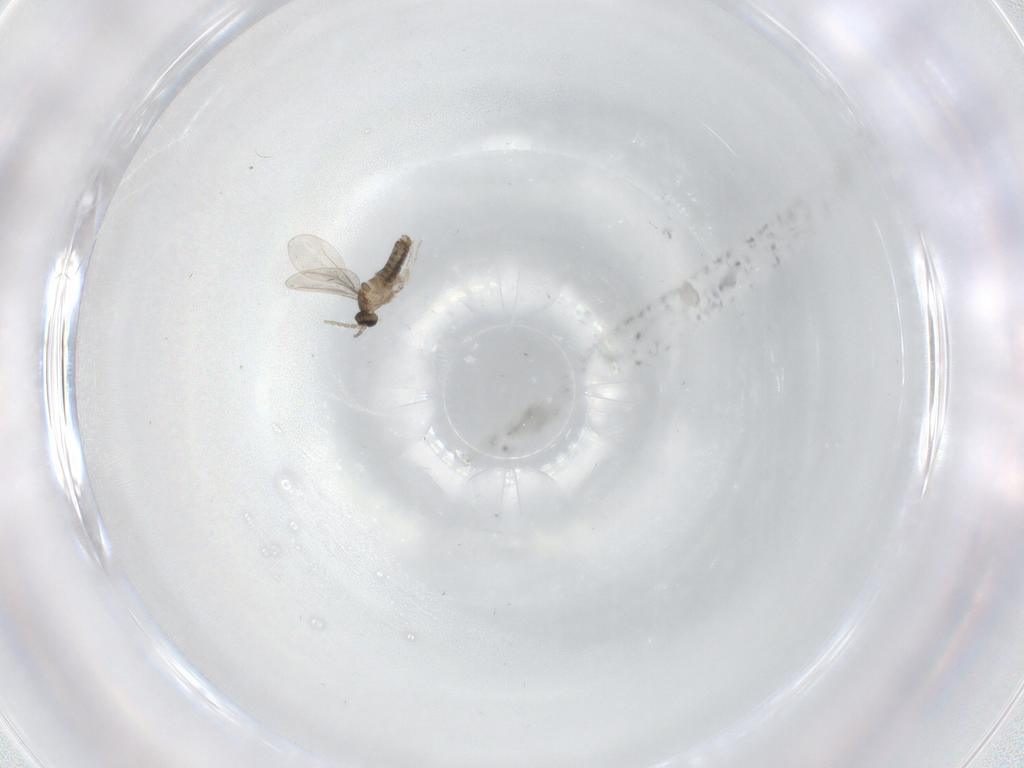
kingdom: Animalia
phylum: Arthropoda
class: Insecta
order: Diptera
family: Cecidomyiidae
